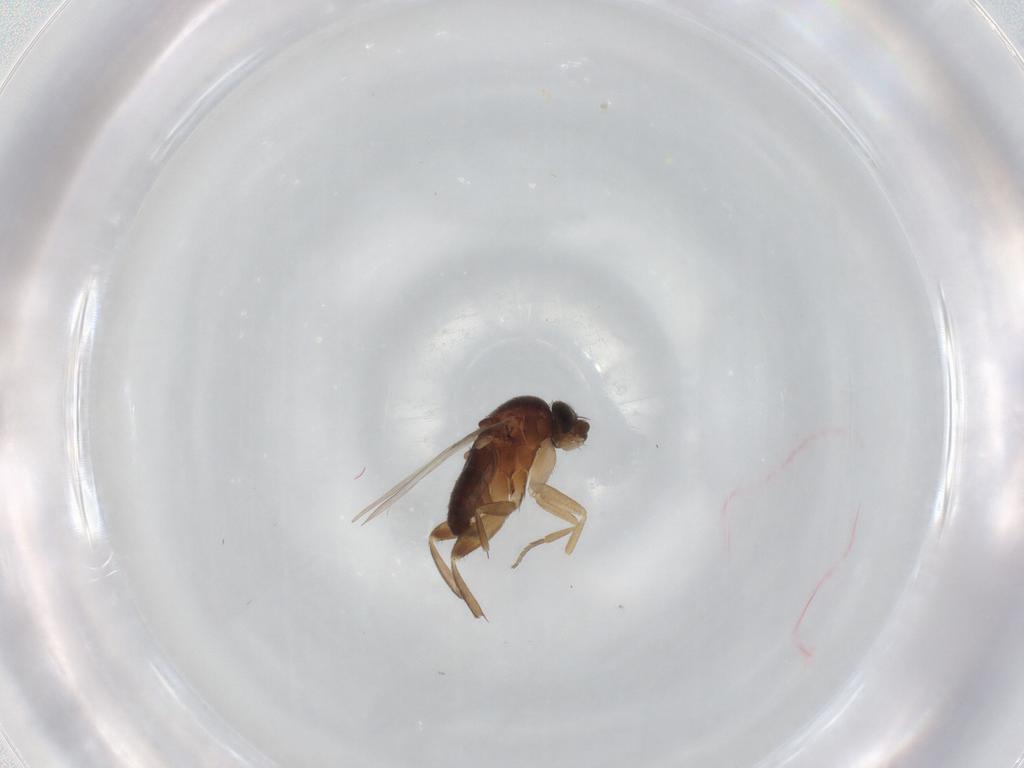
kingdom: Animalia
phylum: Arthropoda
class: Insecta
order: Diptera
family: Phoridae
